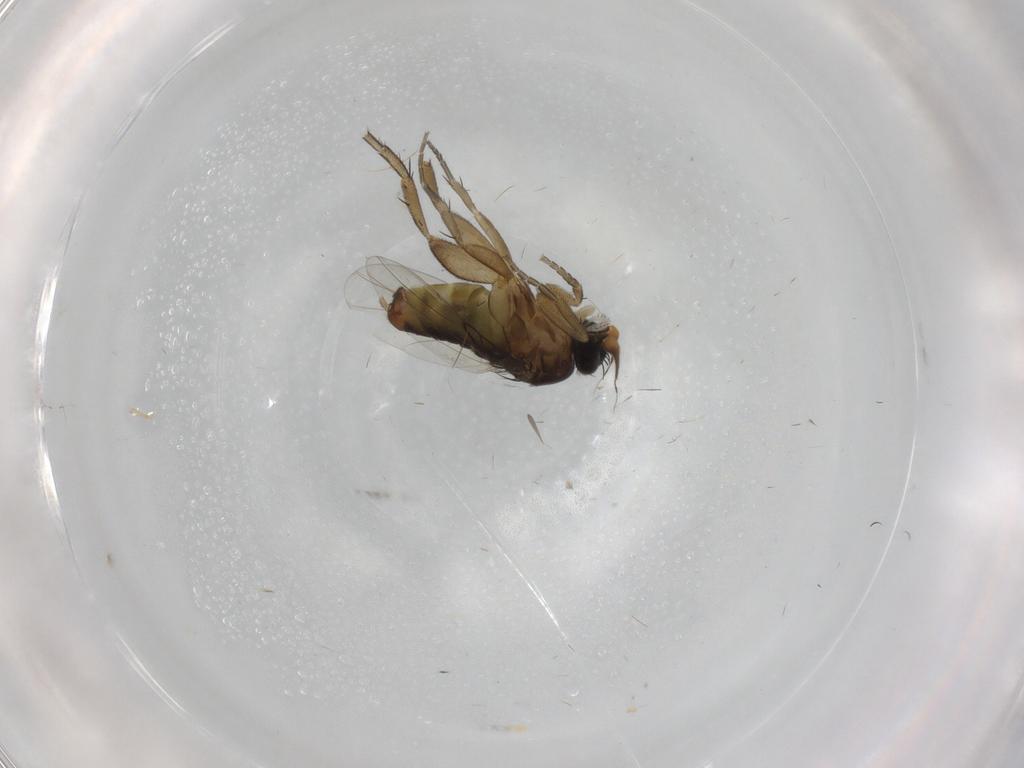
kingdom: Animalia
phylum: Arthropoda
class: Insecta
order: Diptera
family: Phoridae
